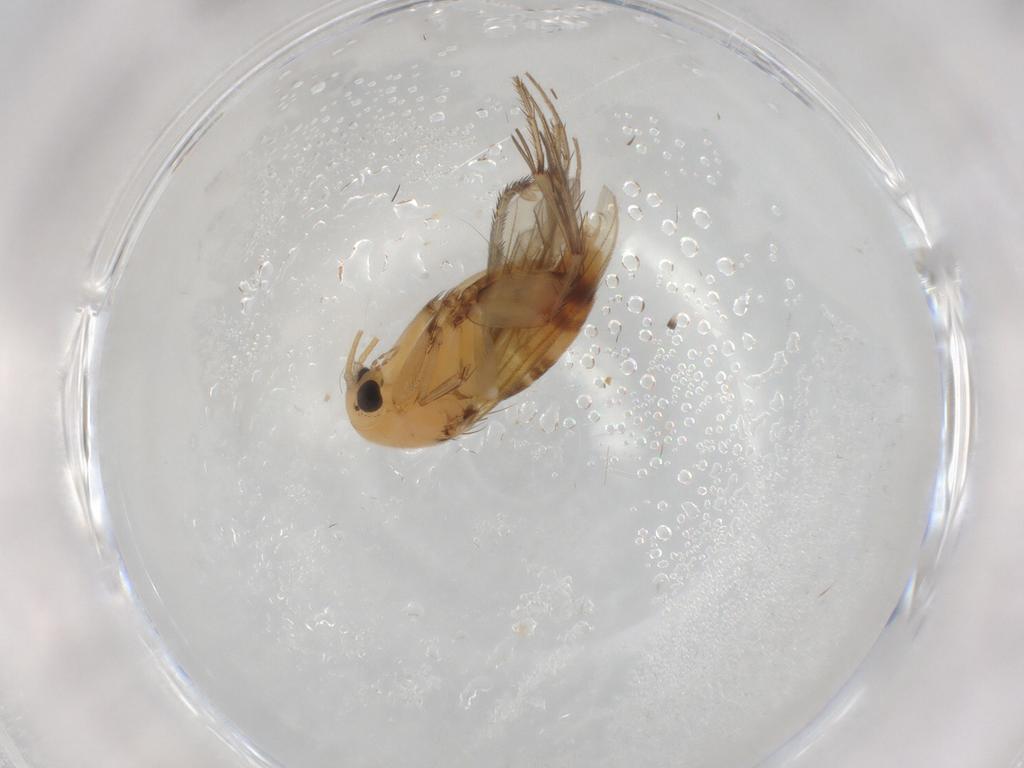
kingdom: Animalia
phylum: Arthropoda
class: Insecta
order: Diptera
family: Mycetophilidae
